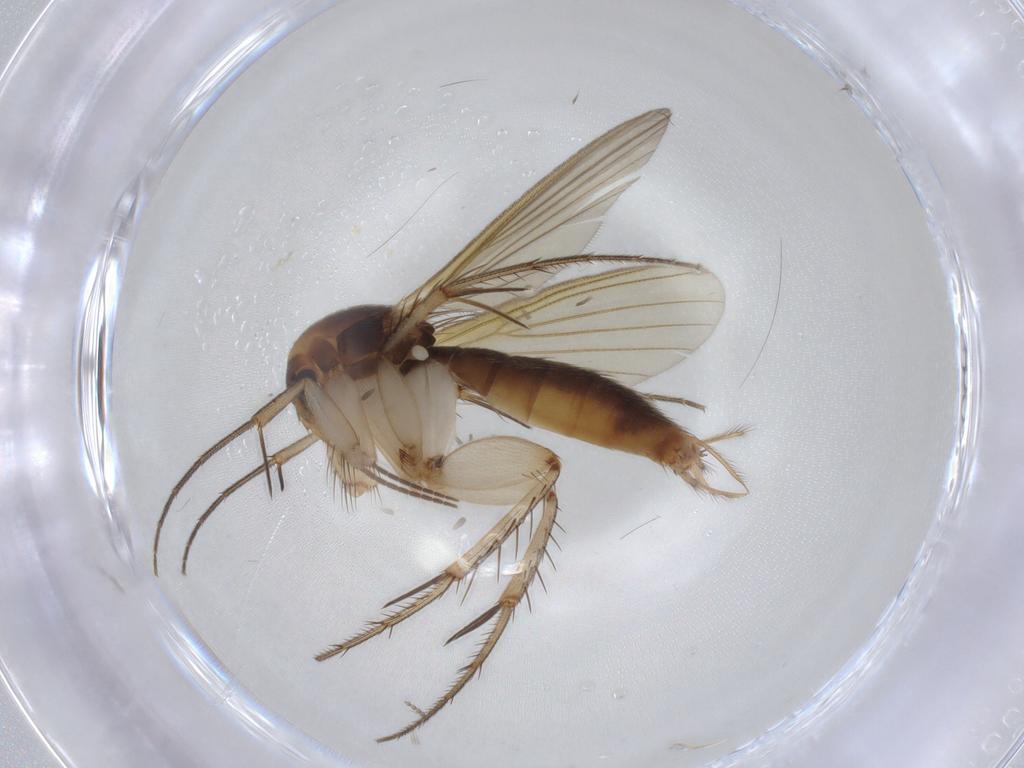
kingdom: Animalia
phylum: Arthropoda
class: Insecta
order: Diptera
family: Mycetophilidae
